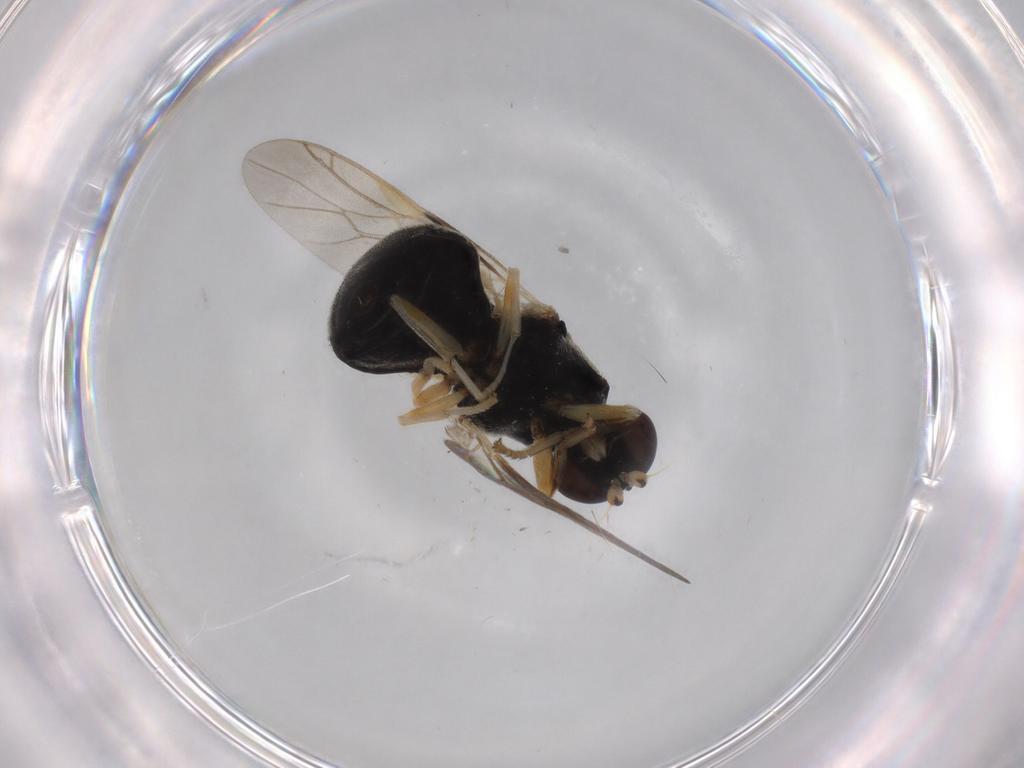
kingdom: Animalia
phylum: Arthropoda
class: Insecta
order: Diptera
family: Stratiomyidae
